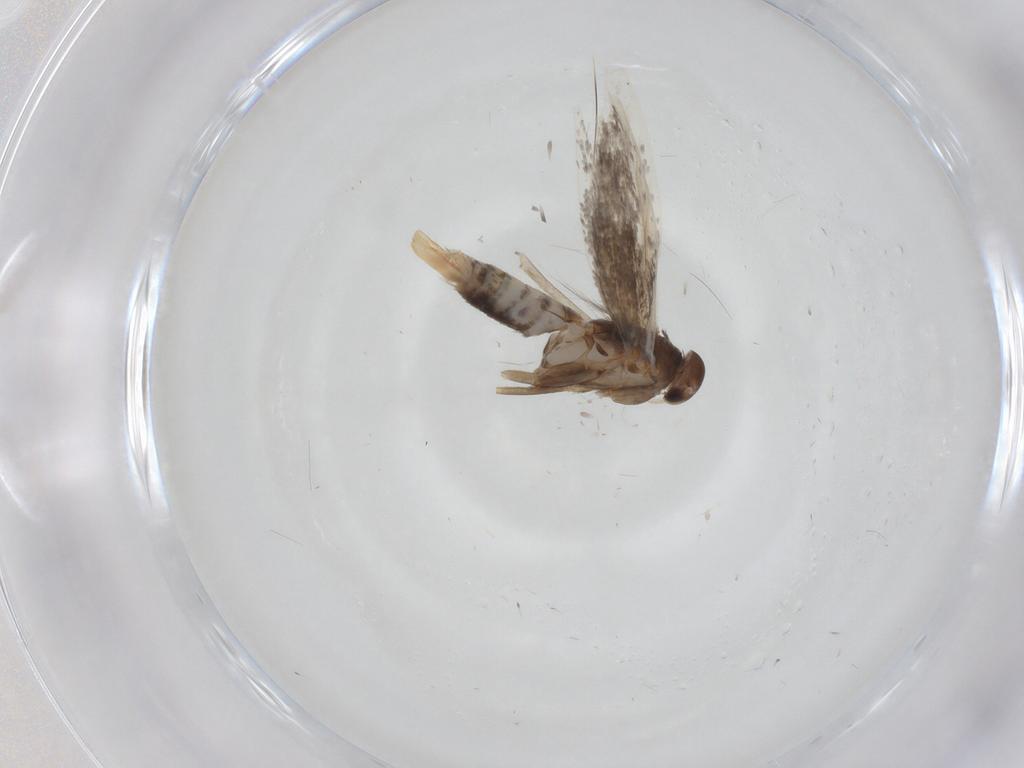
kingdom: Animalia
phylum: Arthropoda
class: Insecta
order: Lepidoptera
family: Elachistidae
